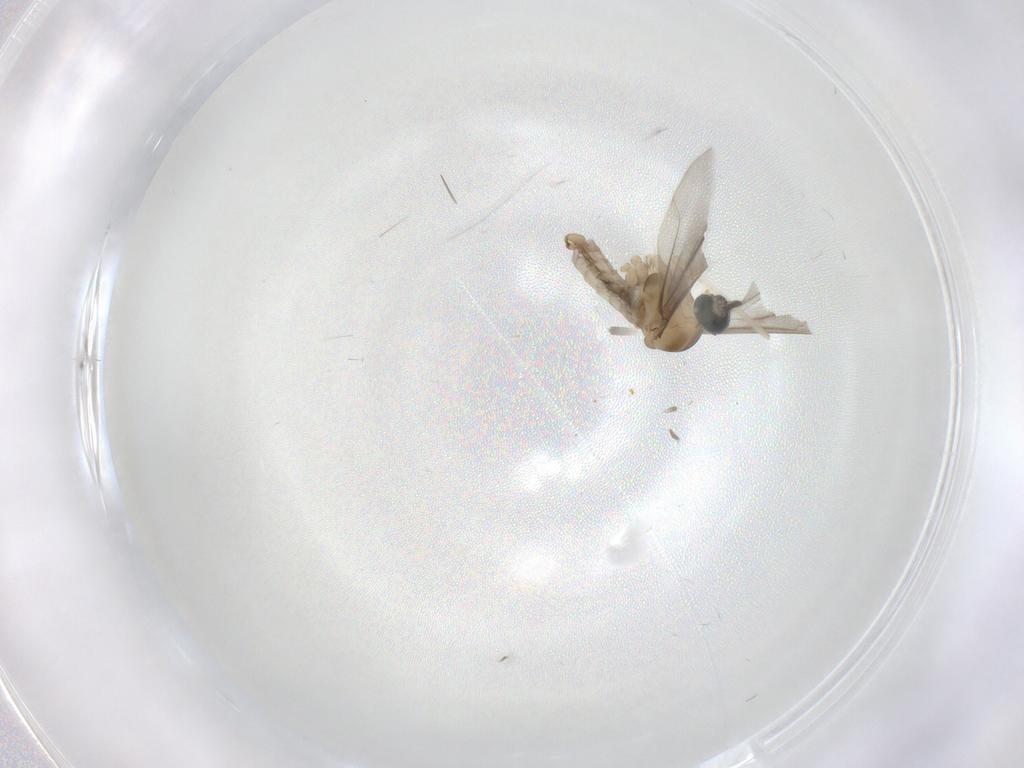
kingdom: Animalia
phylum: Arthropoda
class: Insecta
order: Diptera
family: Cecidomyiidae
